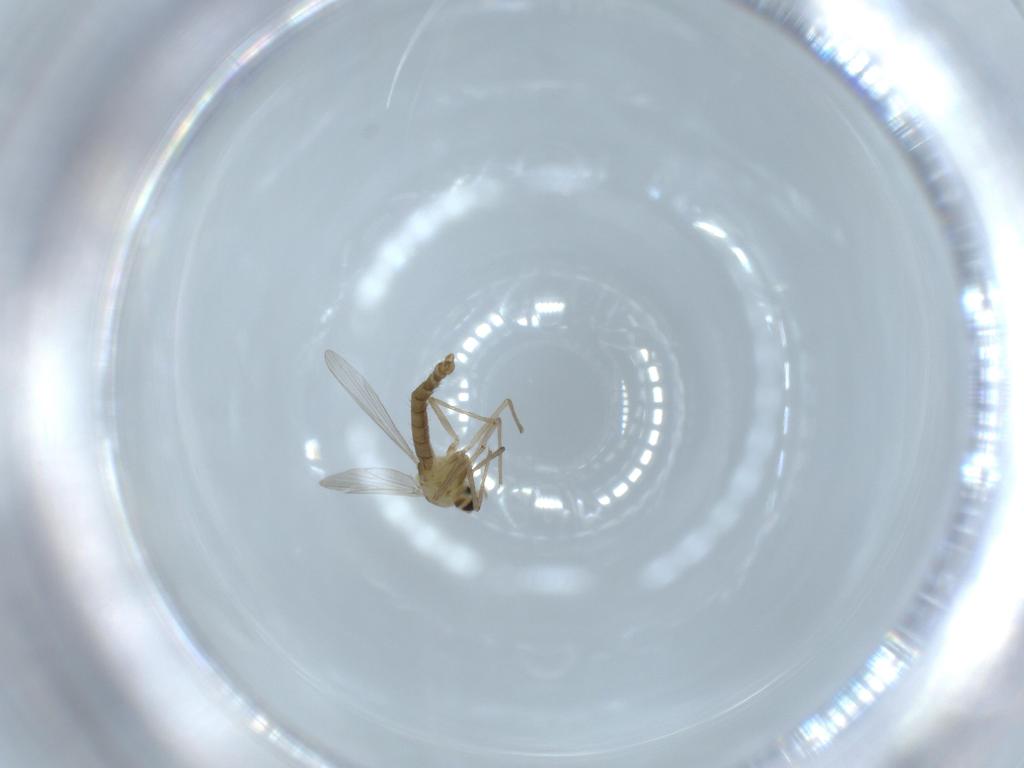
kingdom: Animalia
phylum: Arthropoda
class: Insecta
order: Diptera
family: Chironomidae
